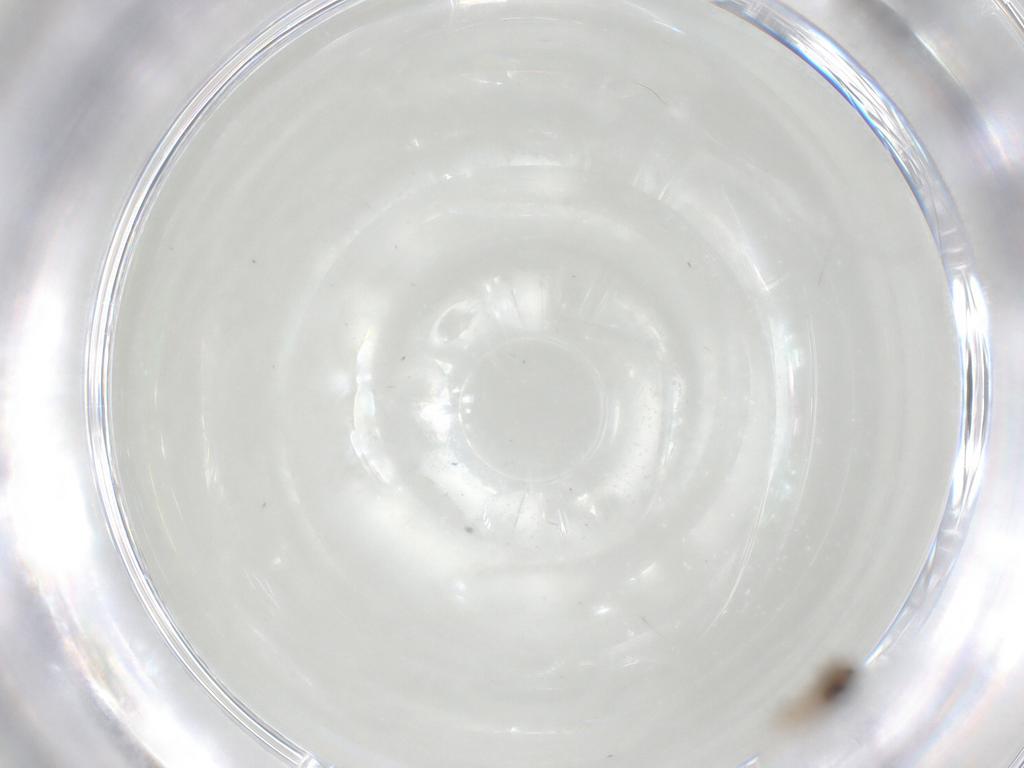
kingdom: Animalia
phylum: Arthropoda
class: Insecta
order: Diptera
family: Ceratopogonidae
